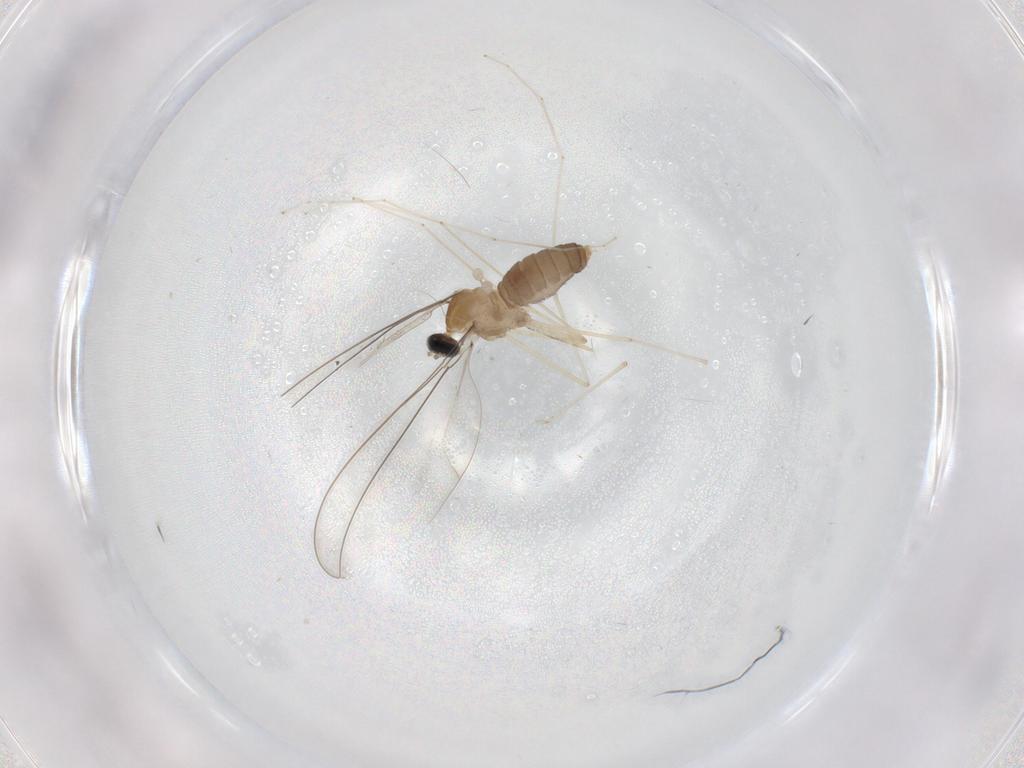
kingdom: Animalia
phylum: Arthropoda
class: Insecta
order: Diptera
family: Sciaridae
